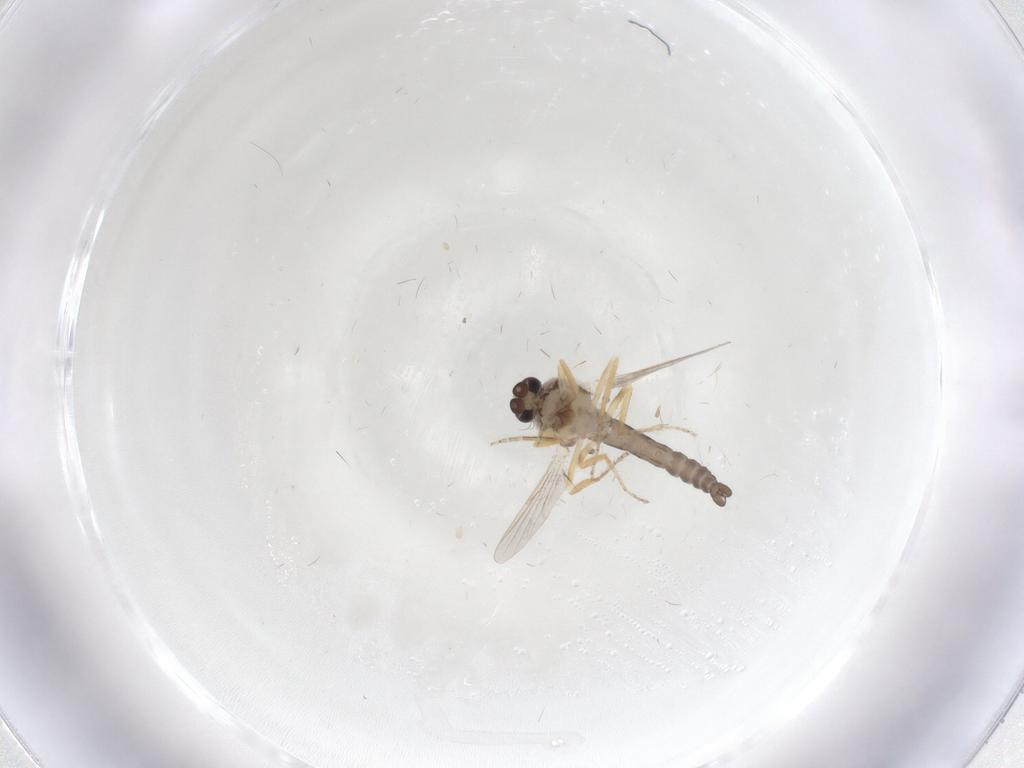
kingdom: Animalia
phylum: Arthropoda
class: Insecta
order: Diptera
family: Ceratopogonidae
